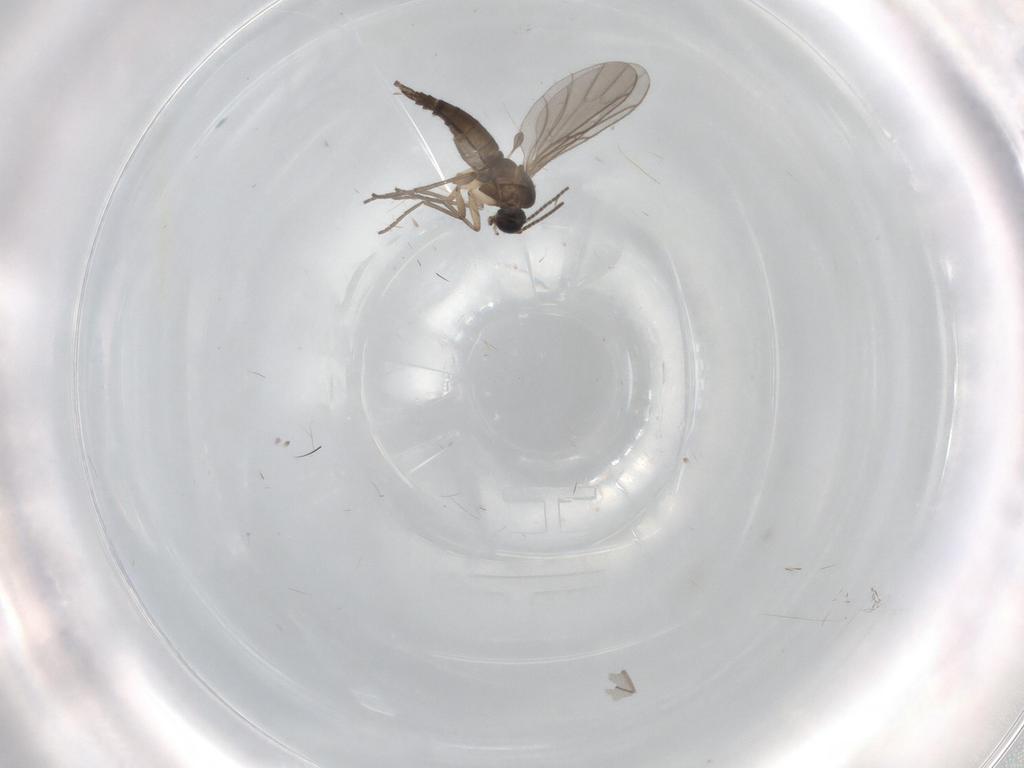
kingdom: Animalia
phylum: Arthropoda
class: Insecta
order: Diptera
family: Sciaridae
